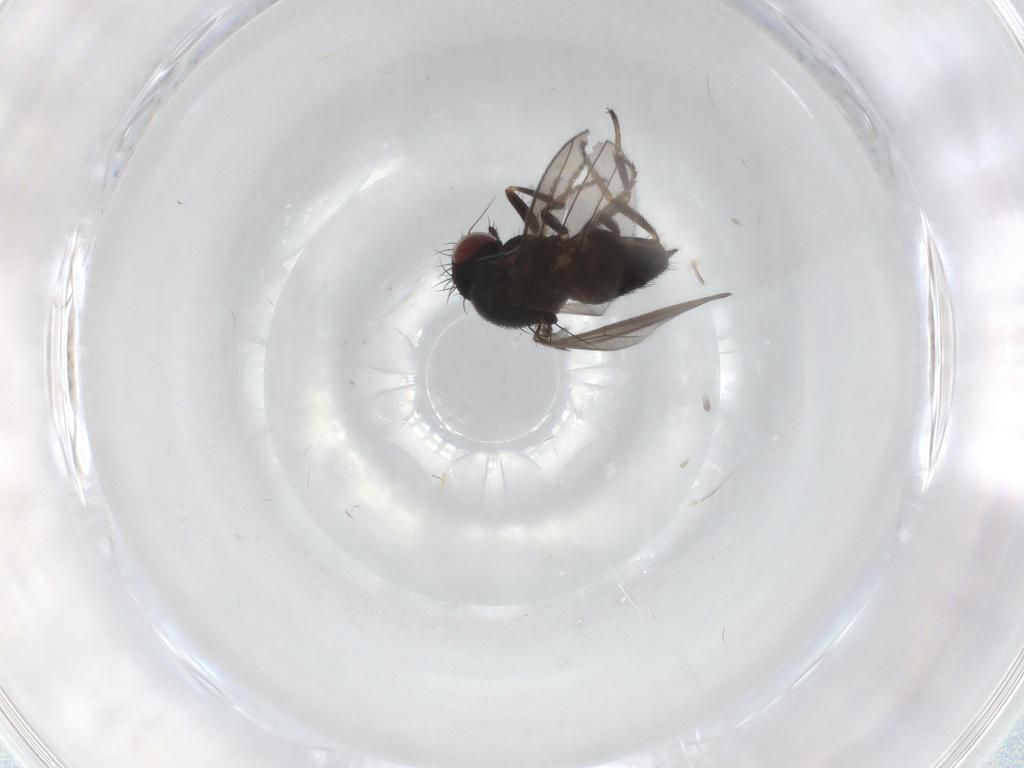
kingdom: Animalia
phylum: Arthropoda
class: Insecta
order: Diptera
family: Milichiidae
